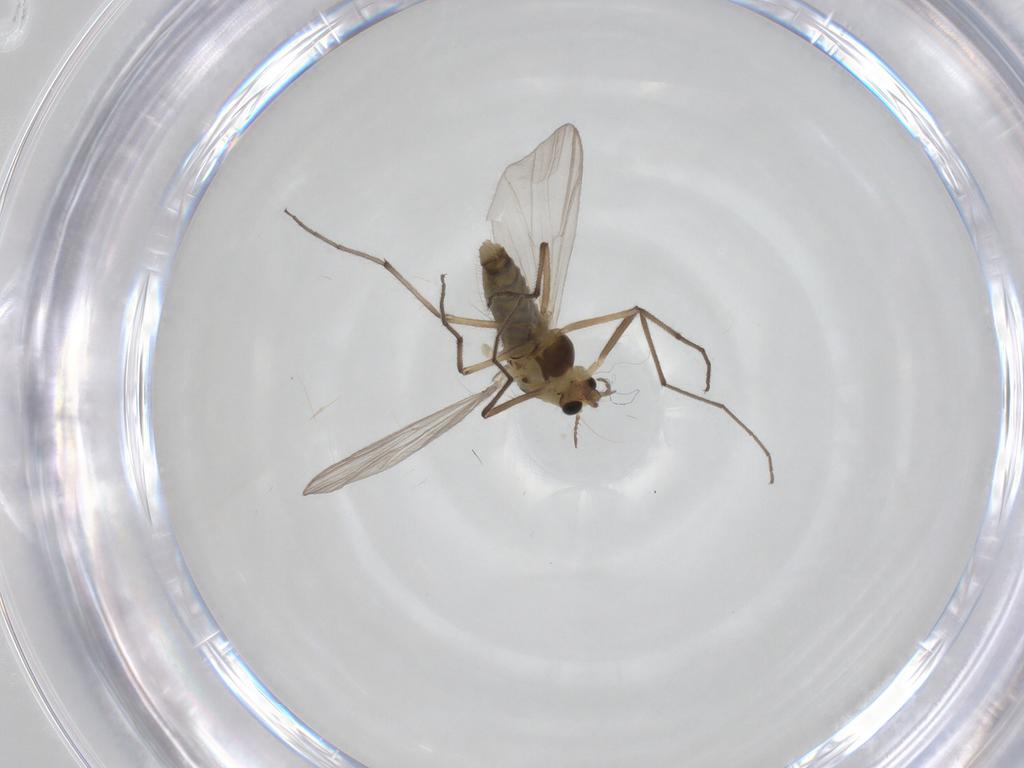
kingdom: Animalia
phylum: Arthropoda
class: Insecta
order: Diptera
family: Chironomidae
